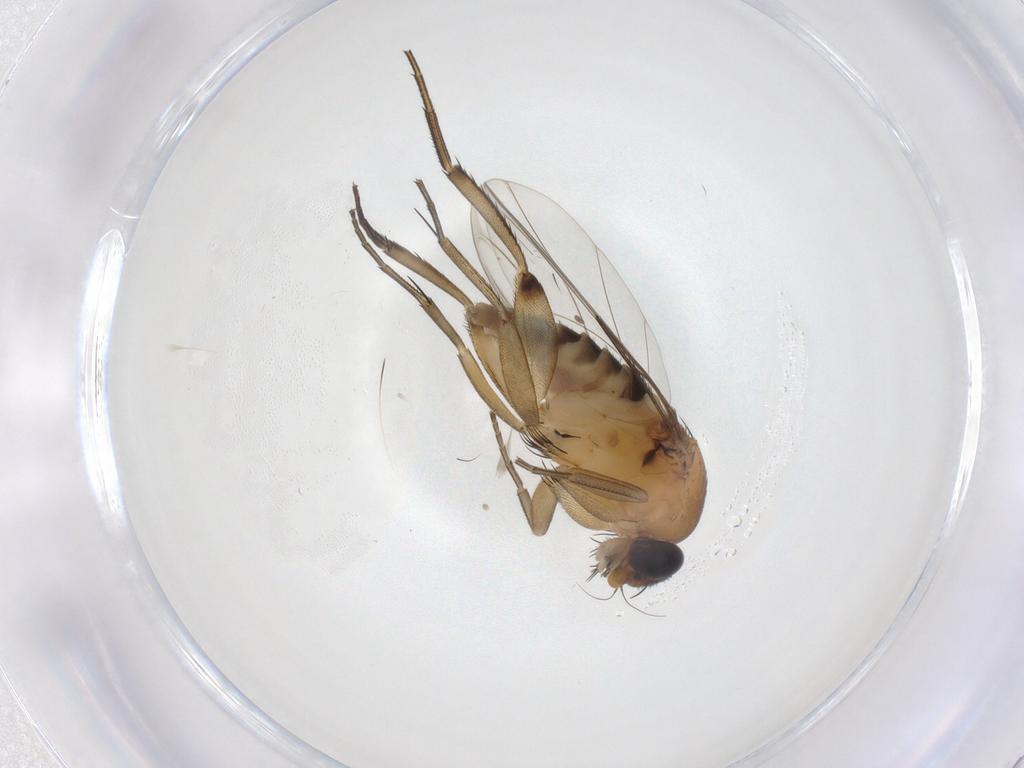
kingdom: Animalia
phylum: Arthropoda
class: Insecta
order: Diptera
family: Phoridae
